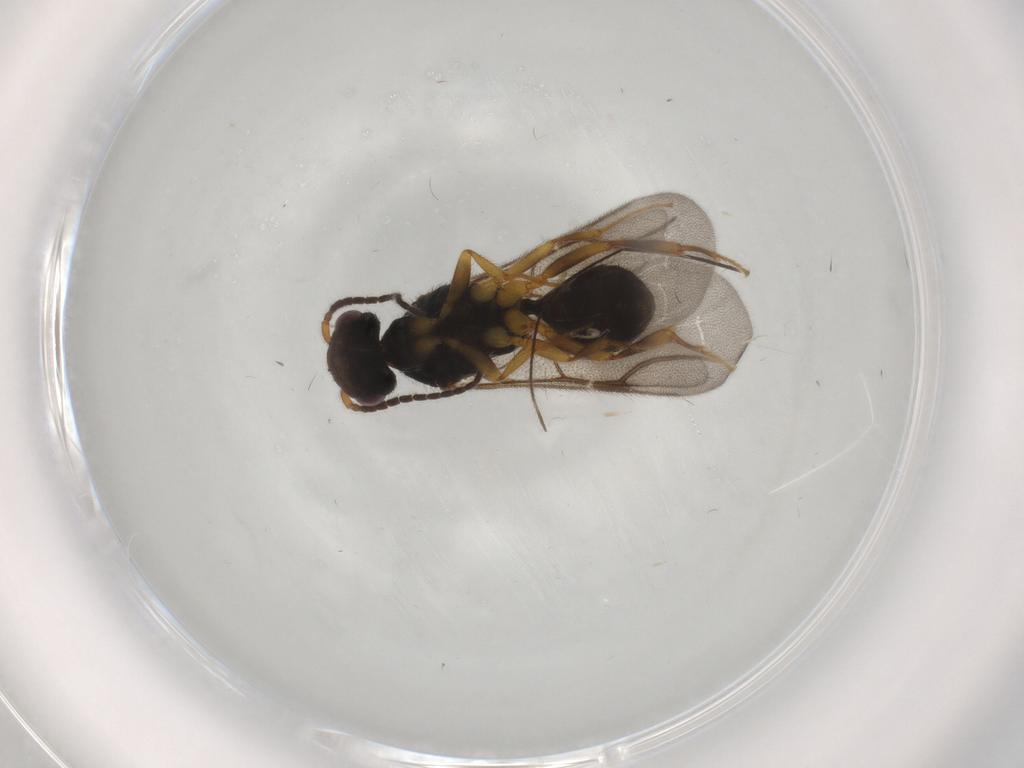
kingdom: Animalia
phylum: Arthropoda
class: Insecta
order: Hymenoptera
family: Bethylidae
